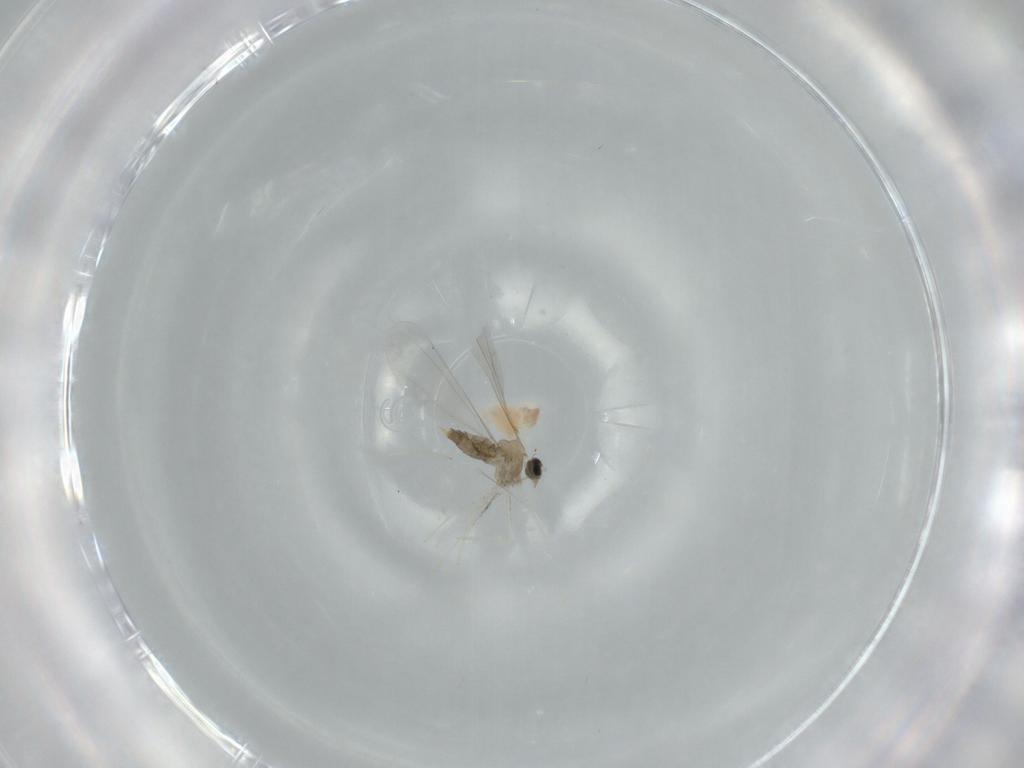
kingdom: Animalia
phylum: Arthropoda
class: Insecta
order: Diptera
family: Cecidomyiidae
